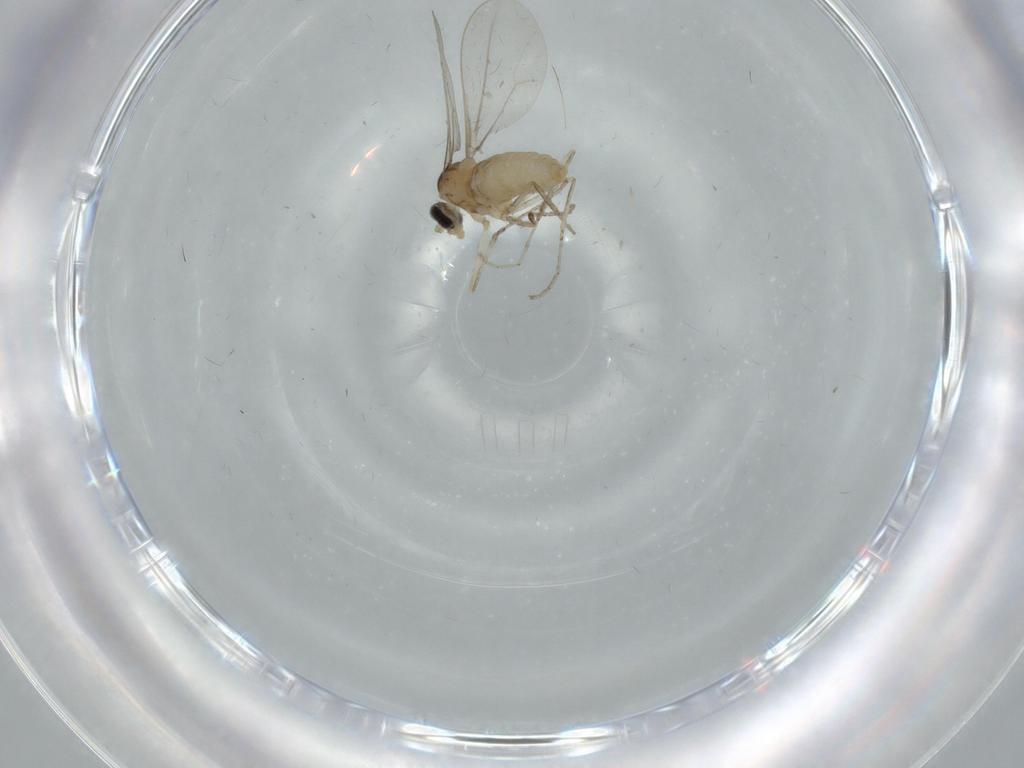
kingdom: Animalia
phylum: Arthropoda
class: Insecta
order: Diptera
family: Cecidomyiidae
